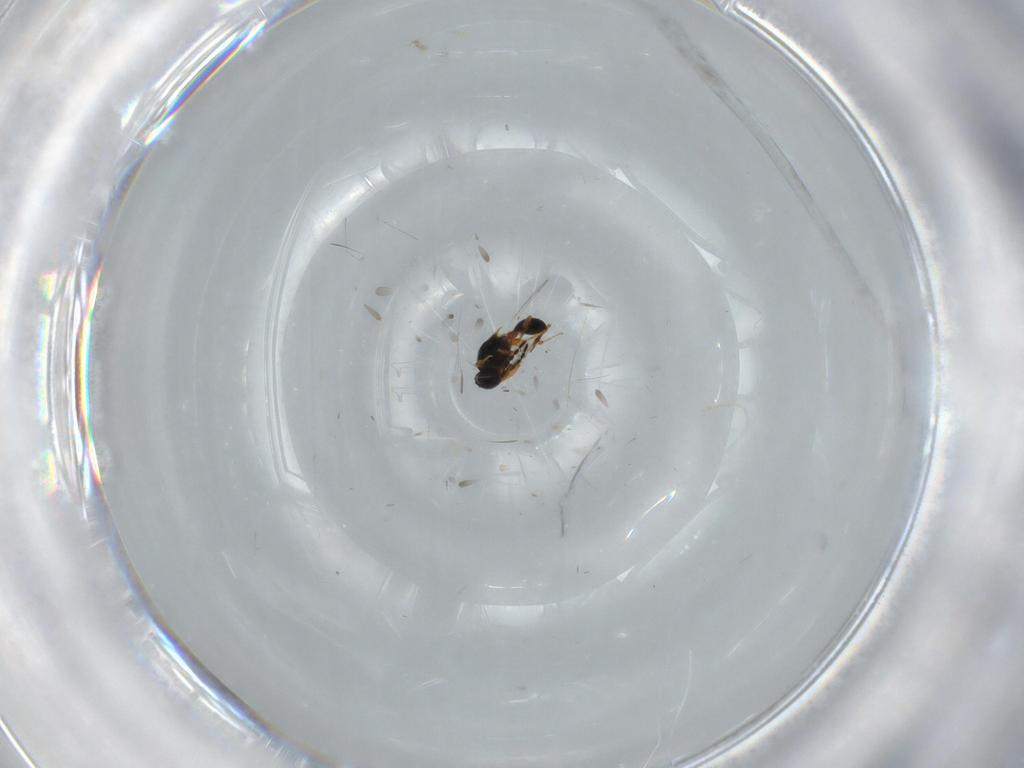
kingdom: Animalia
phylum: Arthropoda
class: Insecta
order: Hymenoptera
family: Platygastridae
